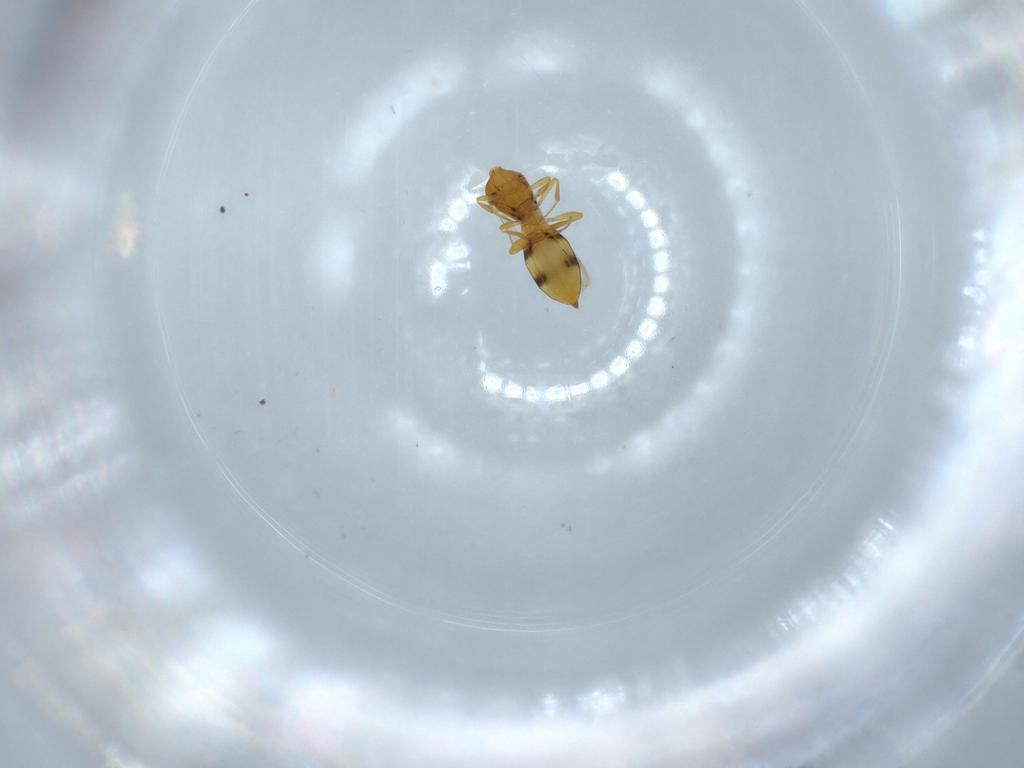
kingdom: Animalia
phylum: Arthropoda
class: Insecta
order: Hymenoptera
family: Scelionidae
